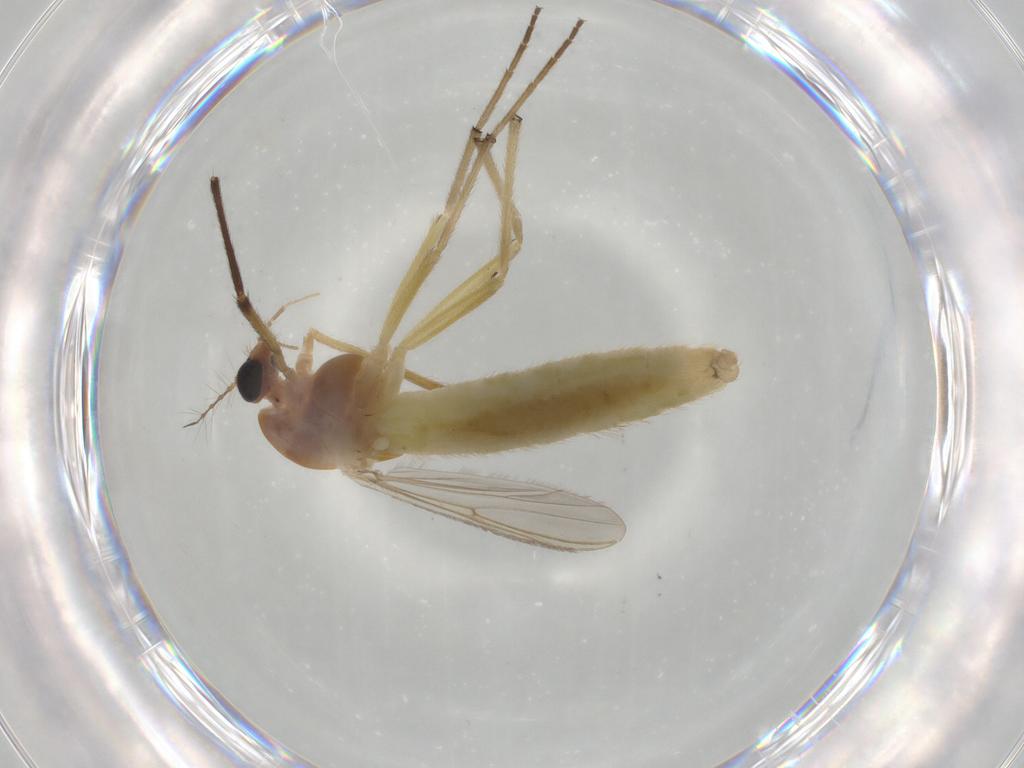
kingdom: Animalia
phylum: Arthropoda
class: Insecta
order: Diptera
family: Chironomidae
